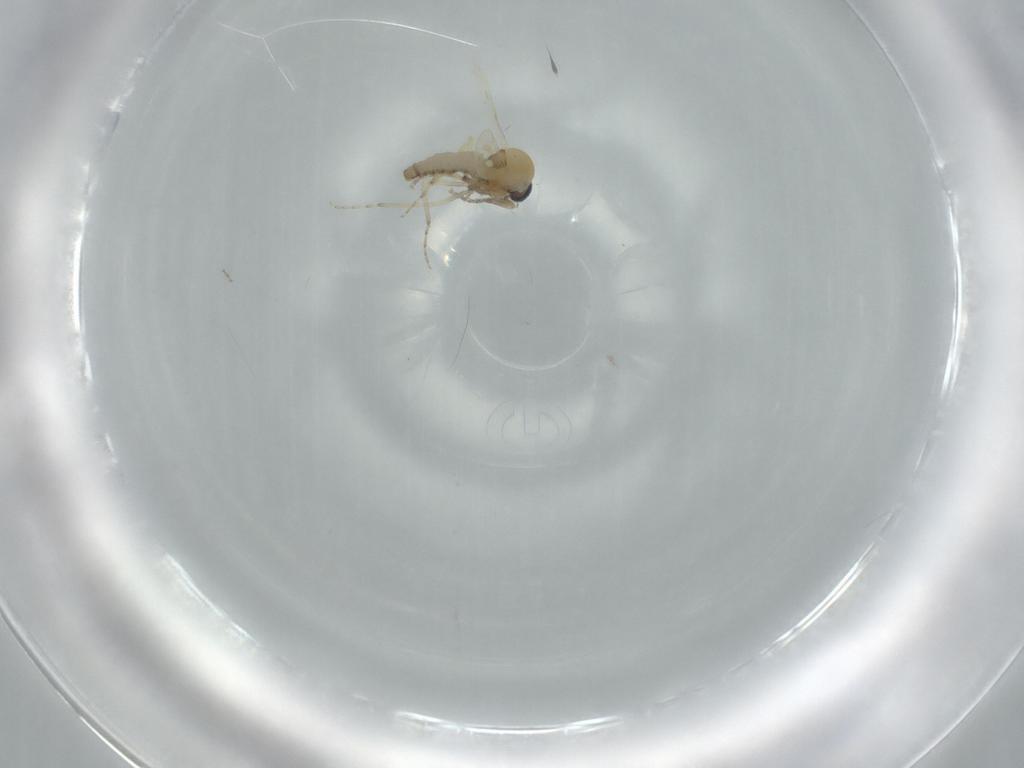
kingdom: Animalia
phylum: Arthropoda
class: Insecta
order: Diptera
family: Ceratopogonidae
